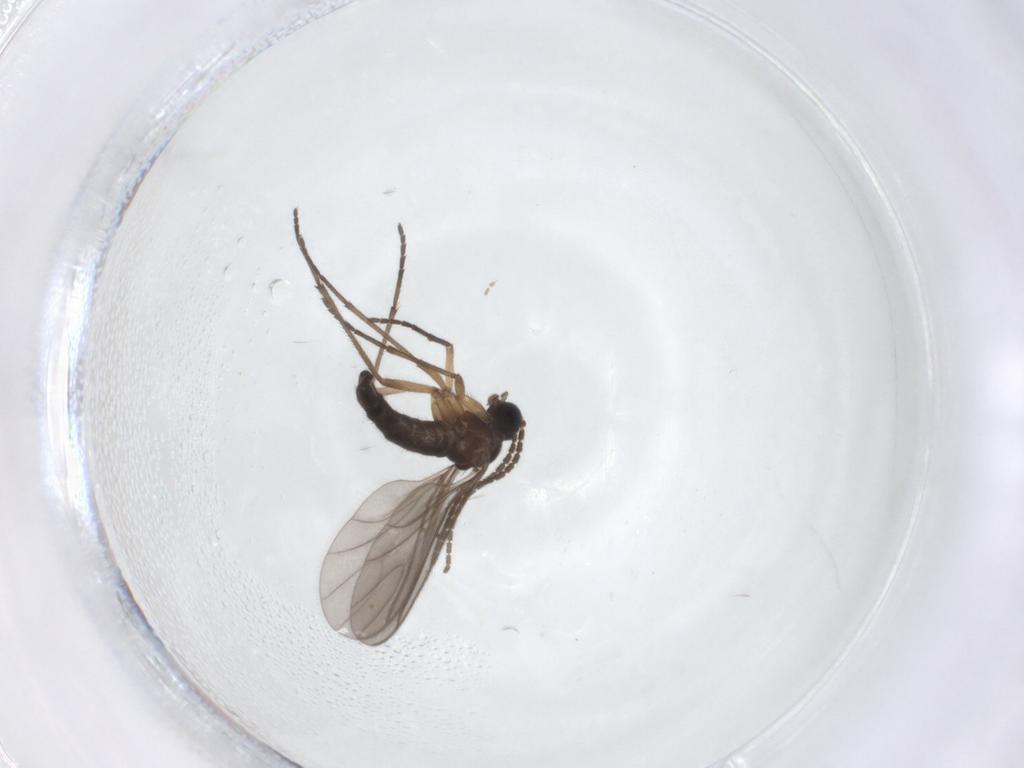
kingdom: Animalia
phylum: Arthropoda
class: Insecta
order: Diptera
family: Sciaridae
